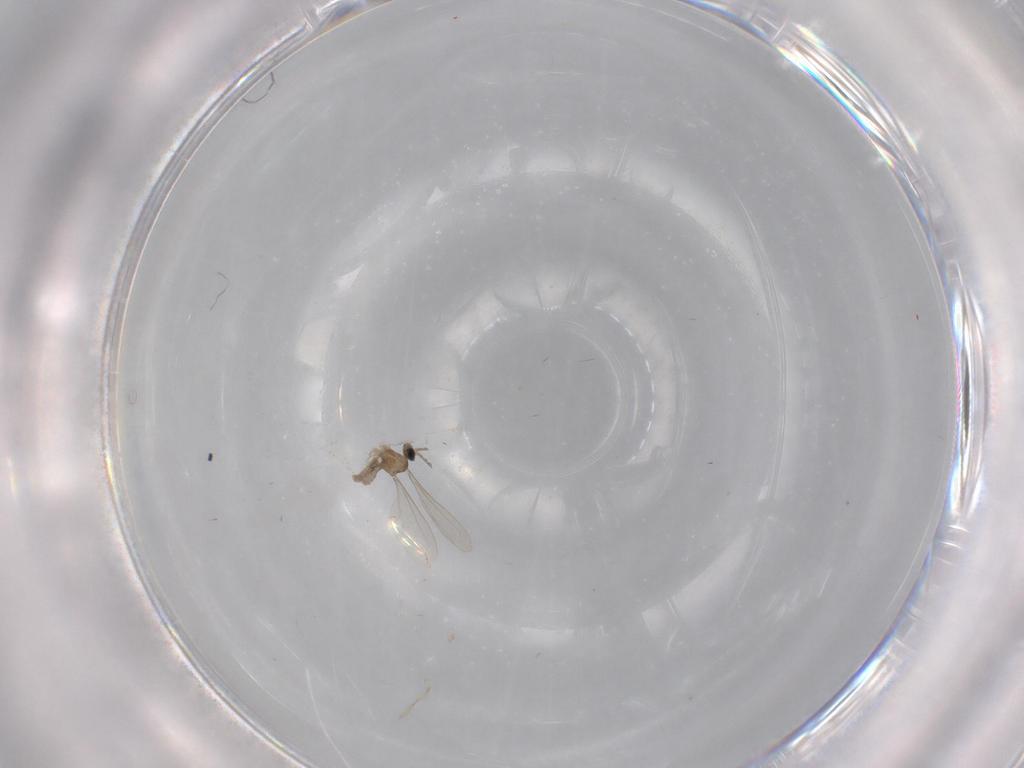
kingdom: Animalia
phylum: Arthropoda
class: Insecta
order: Diptera
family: Cecidomyiidae
